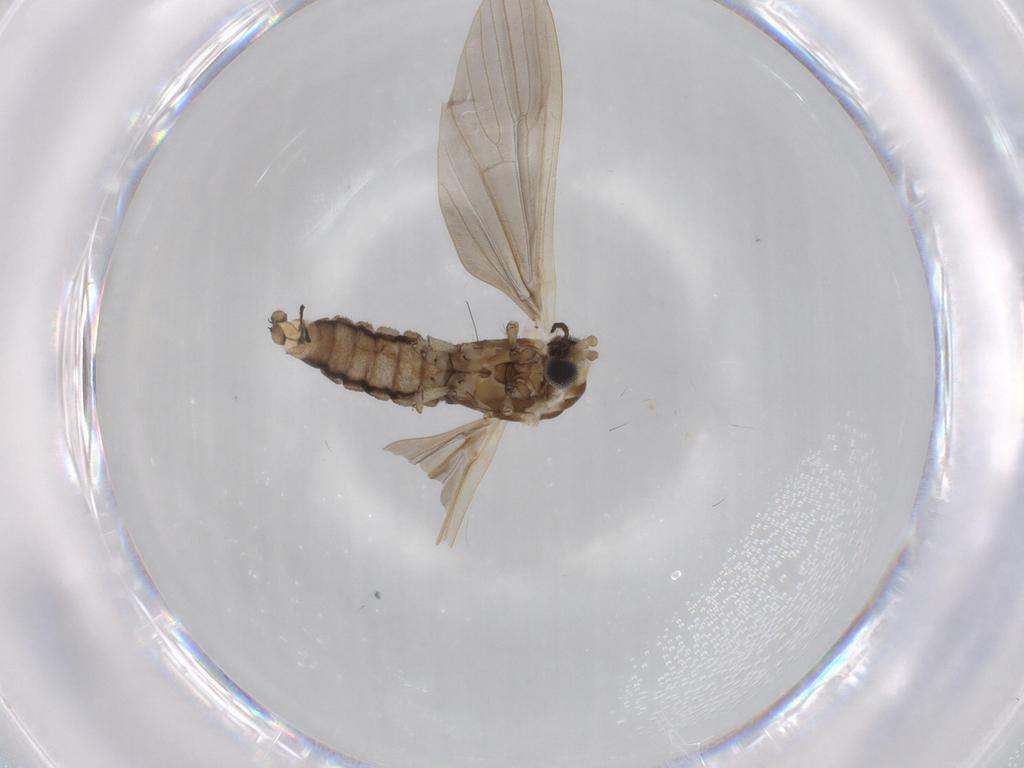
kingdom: Animalia
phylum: Arthropoda
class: Insecta
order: Diptera
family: Cecidomyiidae
